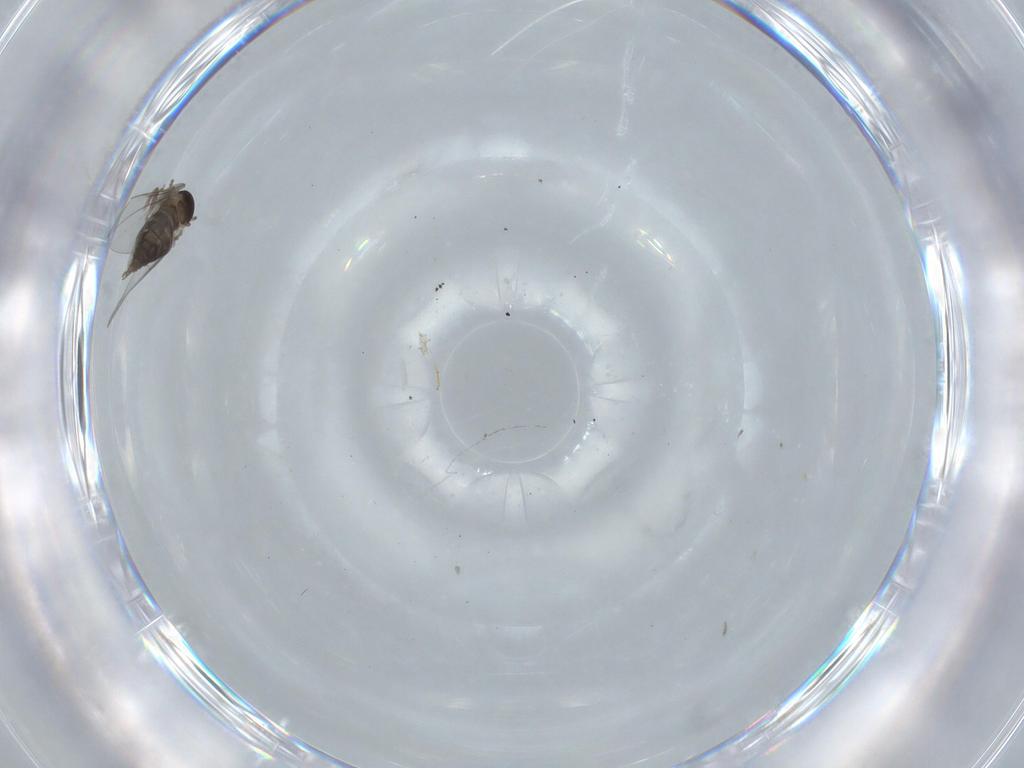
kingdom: Animalia
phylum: Arthropoda
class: Insecta
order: Diptera
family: Cecidomyiidae
